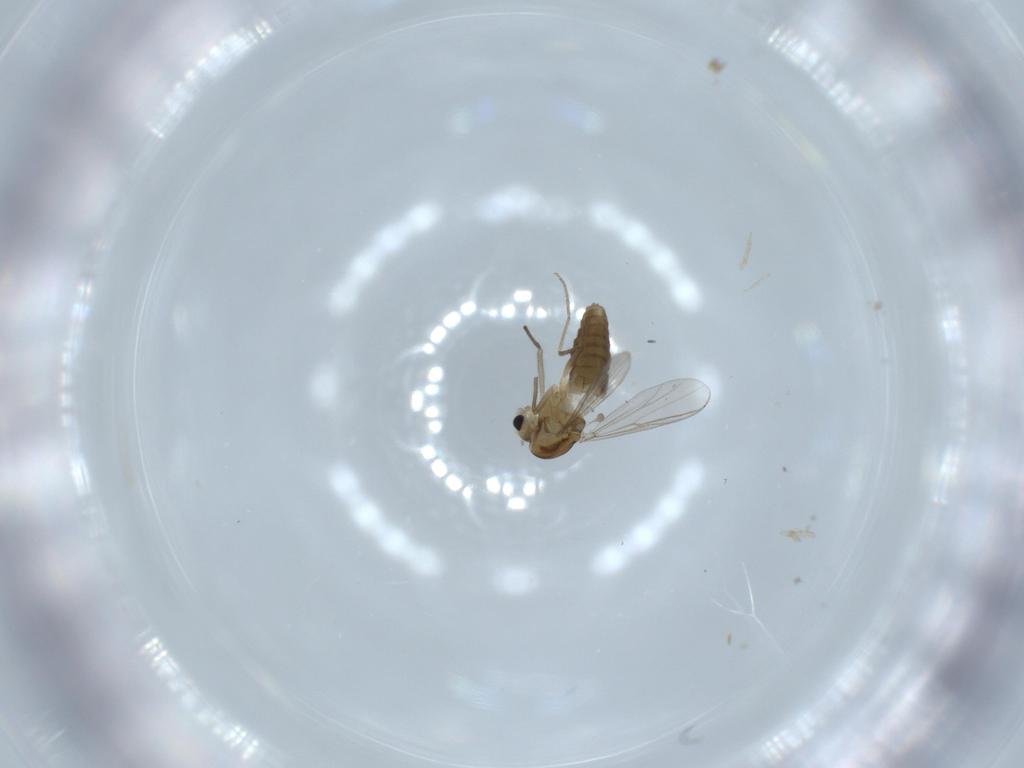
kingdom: Animalia
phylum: Arthropoda
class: Insecta
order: Diptera
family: Chironomidae
